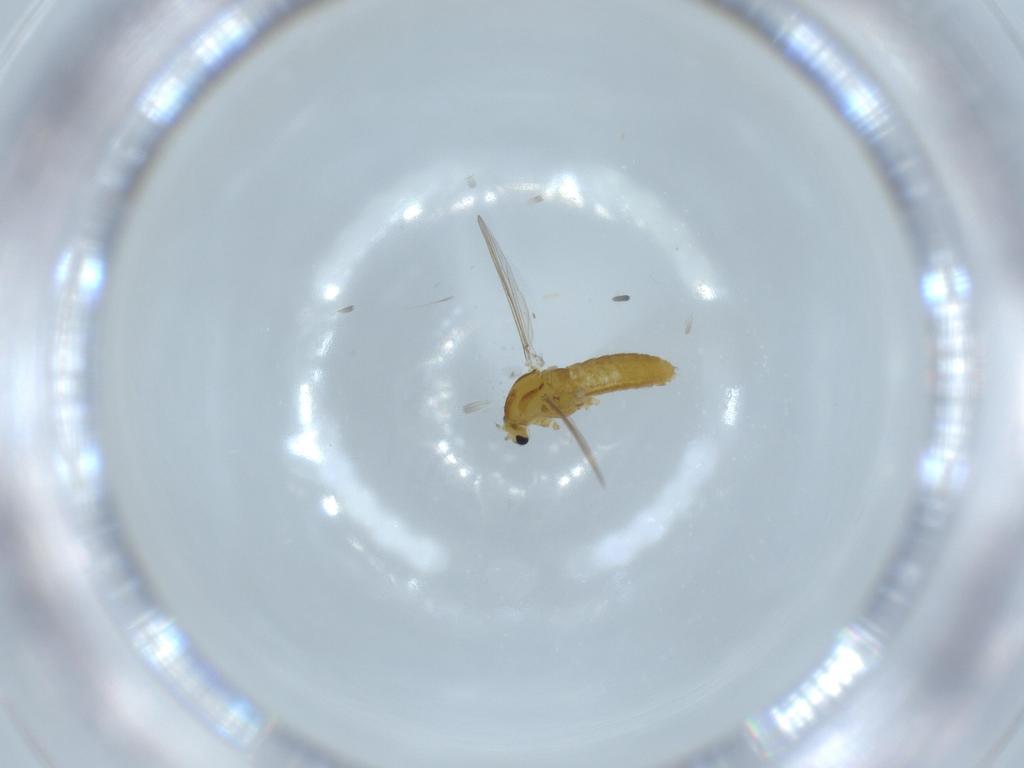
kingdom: Animalia
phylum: Arthropoda
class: Insecta
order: Diptera
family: Sciaridae
